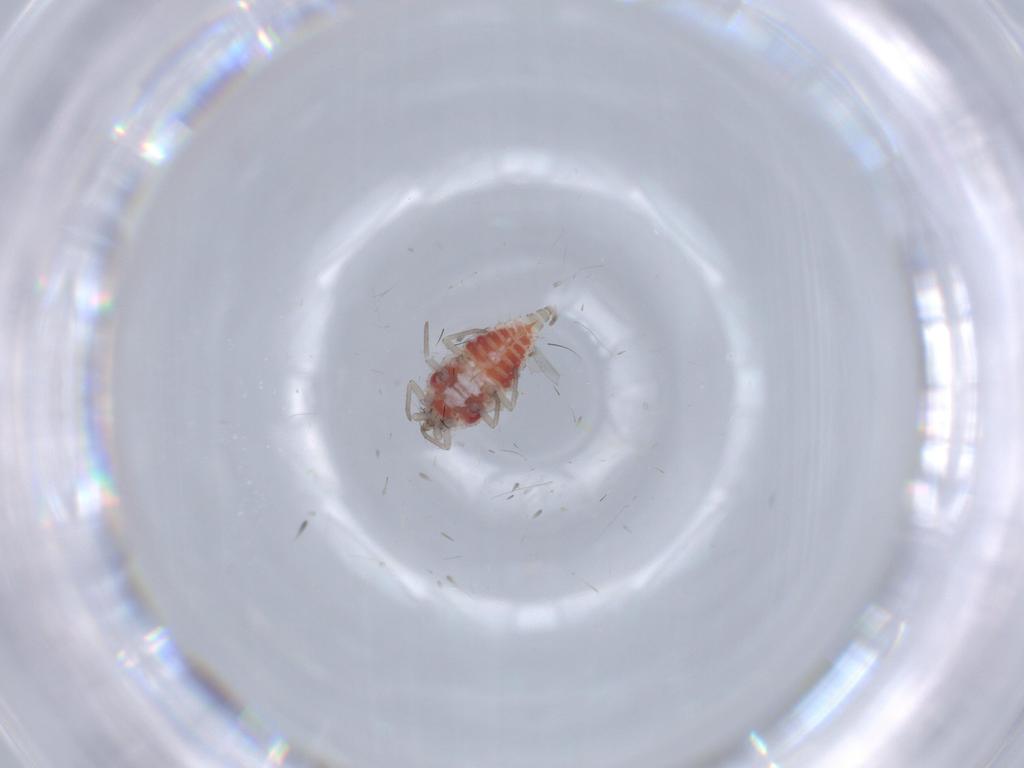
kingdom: Animalia
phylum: Arthropoda
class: Insecta
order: Neuroptera
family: Coniopterygidae
